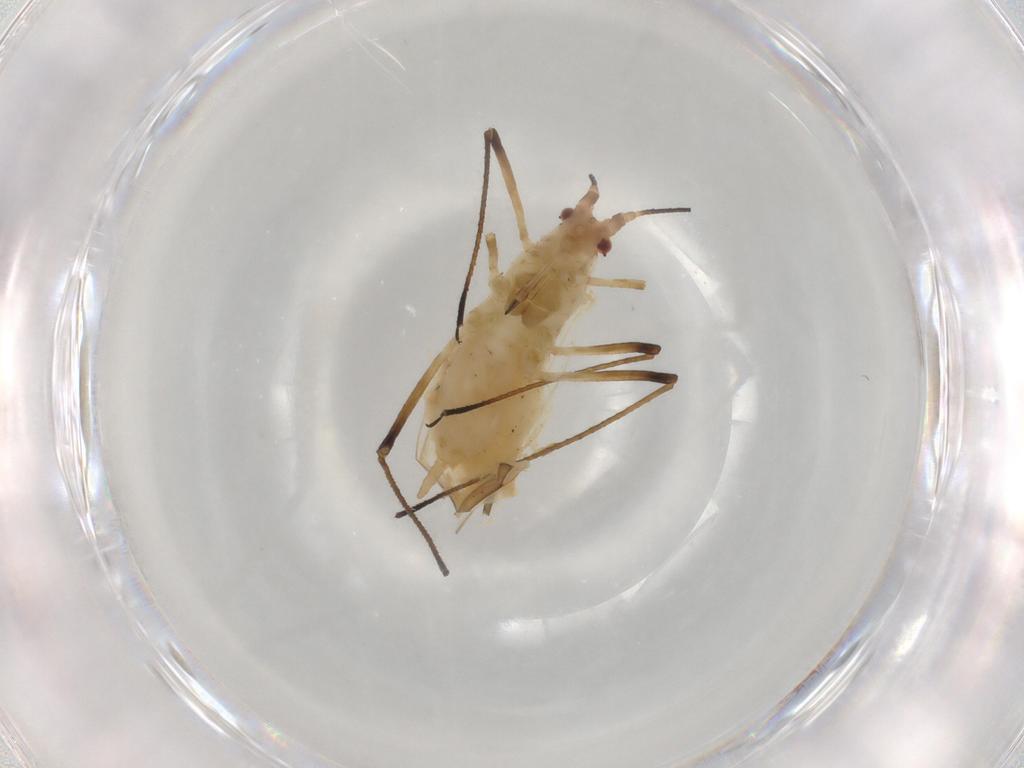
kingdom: Animalia
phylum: Arthropoda
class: Insecta
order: Hemiptera
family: Aphididae
